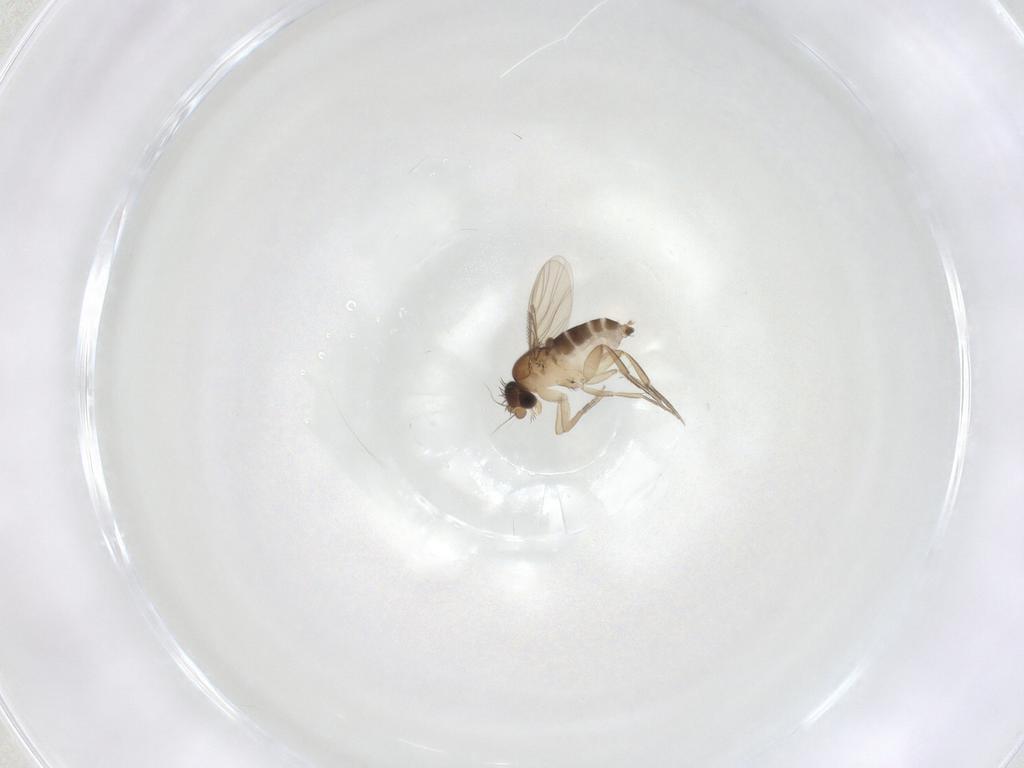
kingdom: Animalia
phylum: Arthropoda
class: Insecta
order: Diptera
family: Phoridae
